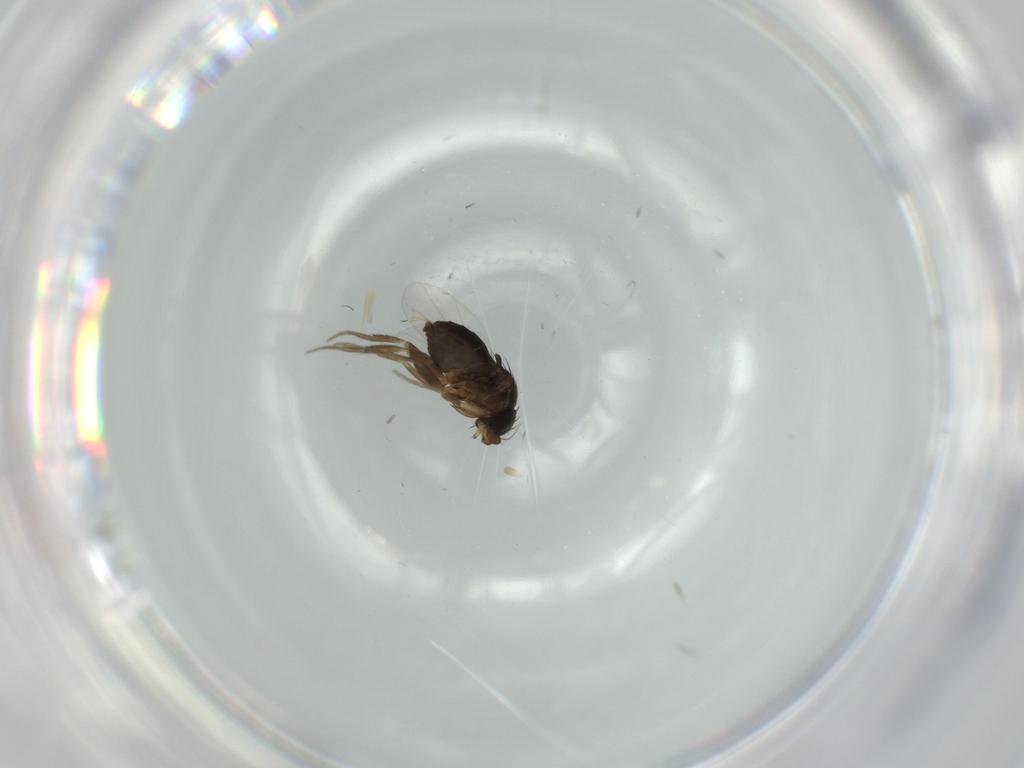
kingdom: Animalia
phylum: Arthropoda
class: Insecta
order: Diptera
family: Phoridae
